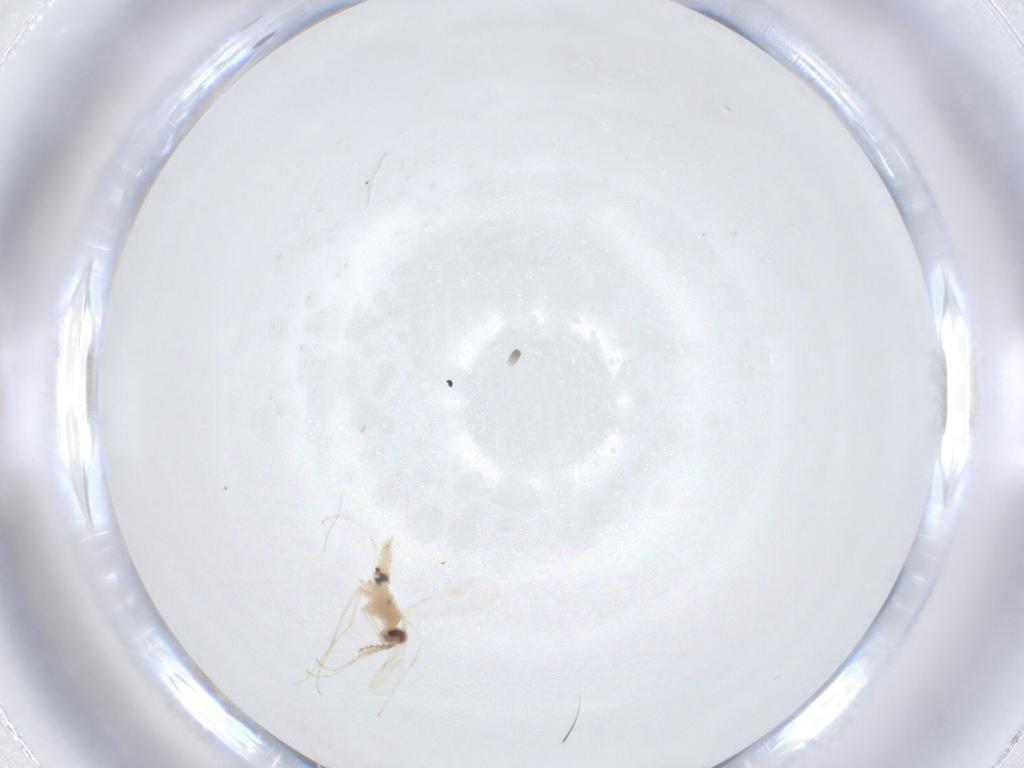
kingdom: Animalia
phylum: Arthropoda
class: Insecta
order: Diptera
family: Cecidomyiidae
